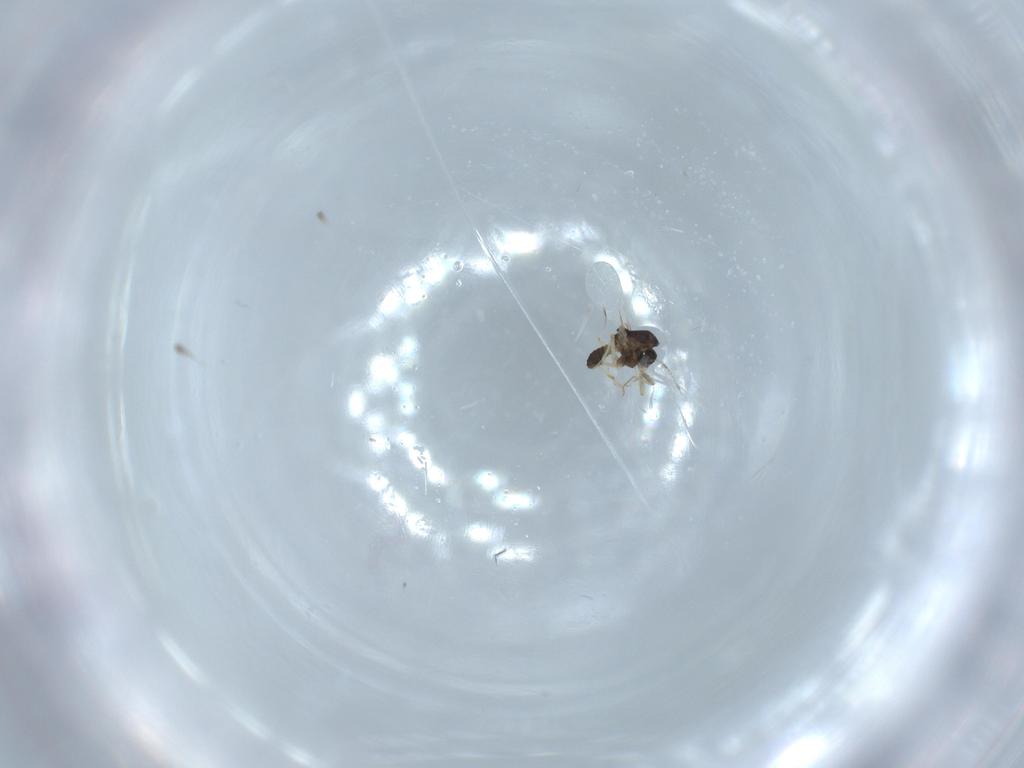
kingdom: Animalia
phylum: Arthropoda
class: Insecta
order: Diptera
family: Chironomidae
